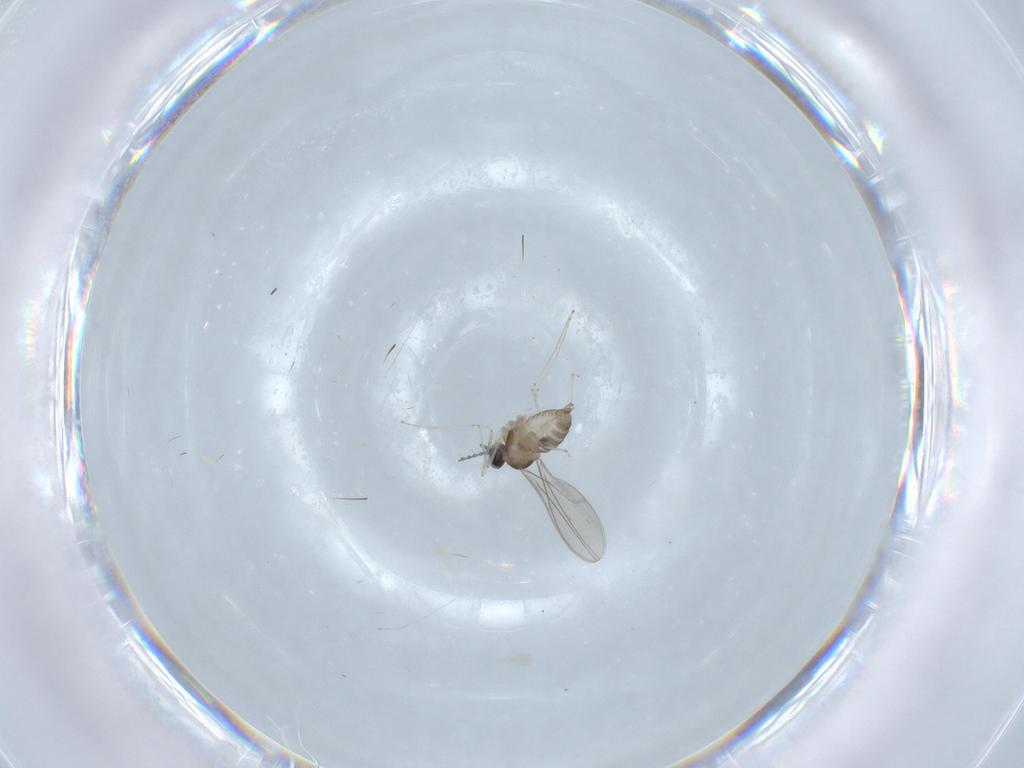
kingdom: Animalia
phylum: Arthropoda
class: Insecta
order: Diptera
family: Cecidomyiidae
